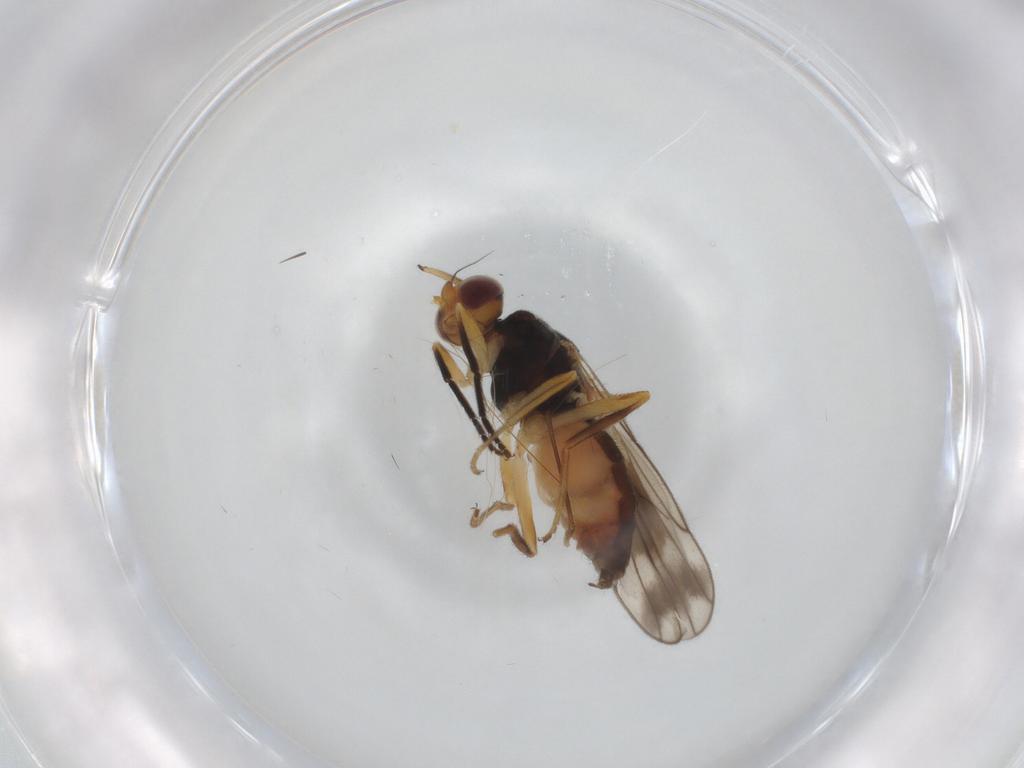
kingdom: Animalia
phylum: Arthropoda
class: Insecta
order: Diptera
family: Chloropidae
